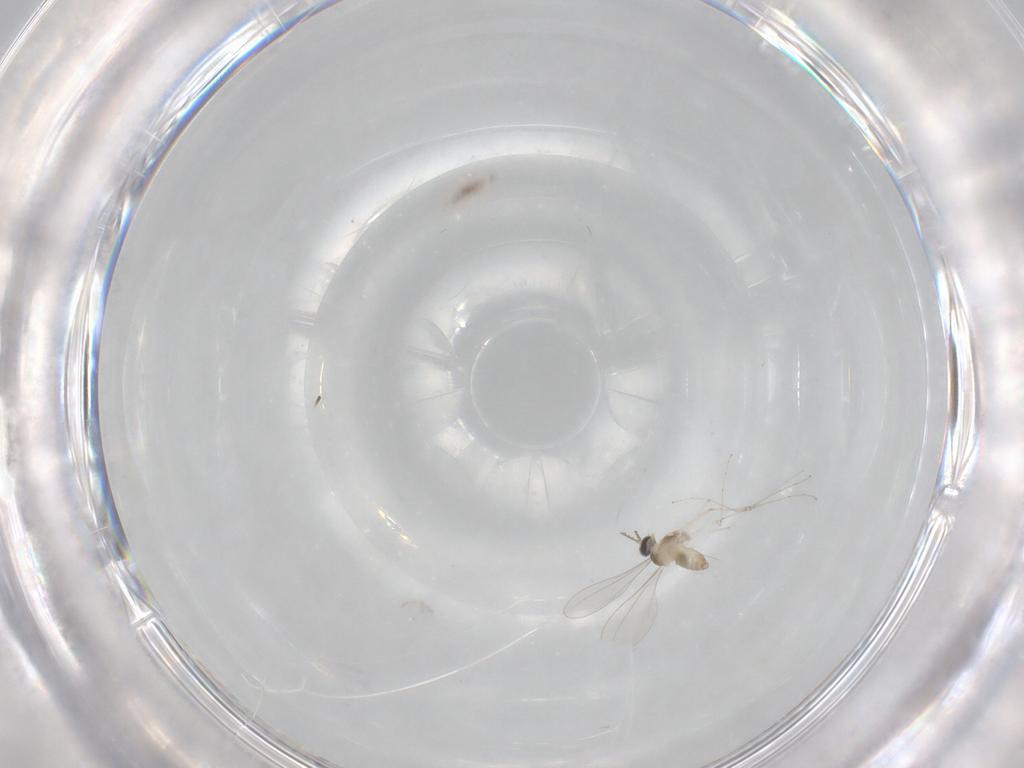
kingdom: Animalia
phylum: Arthropoda
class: Insecta
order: Diptera
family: Cecidomyiidae
